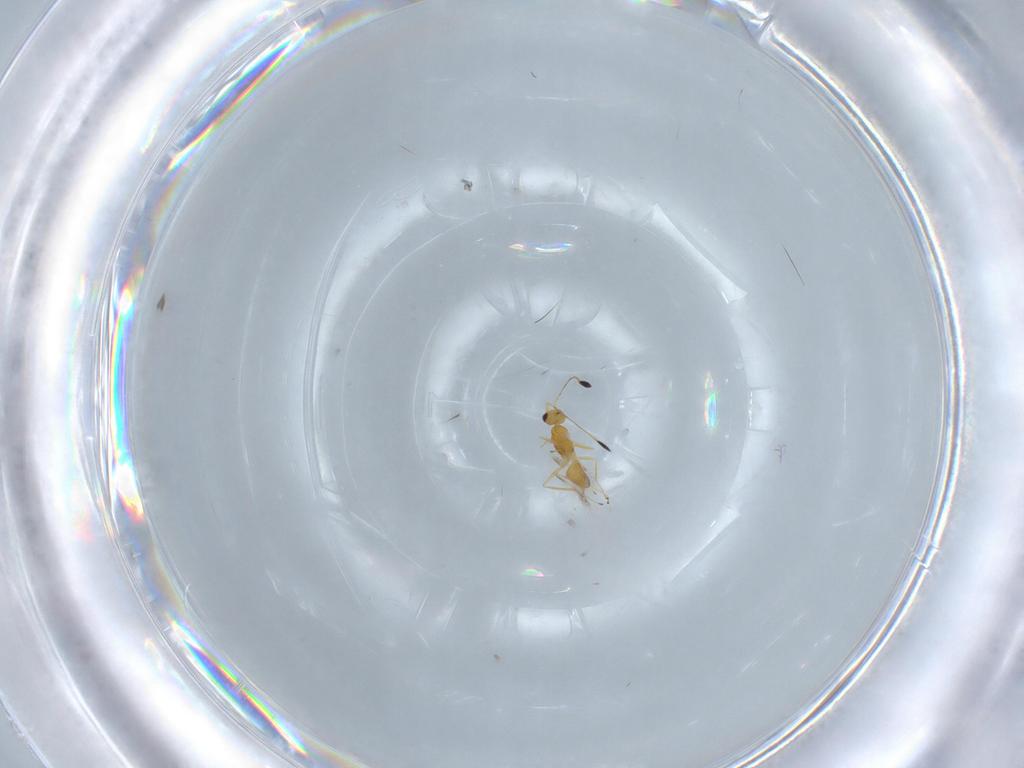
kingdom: Animalia
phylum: Arthropoda
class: Insecta
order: Hymenoptera
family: Mymaridae
